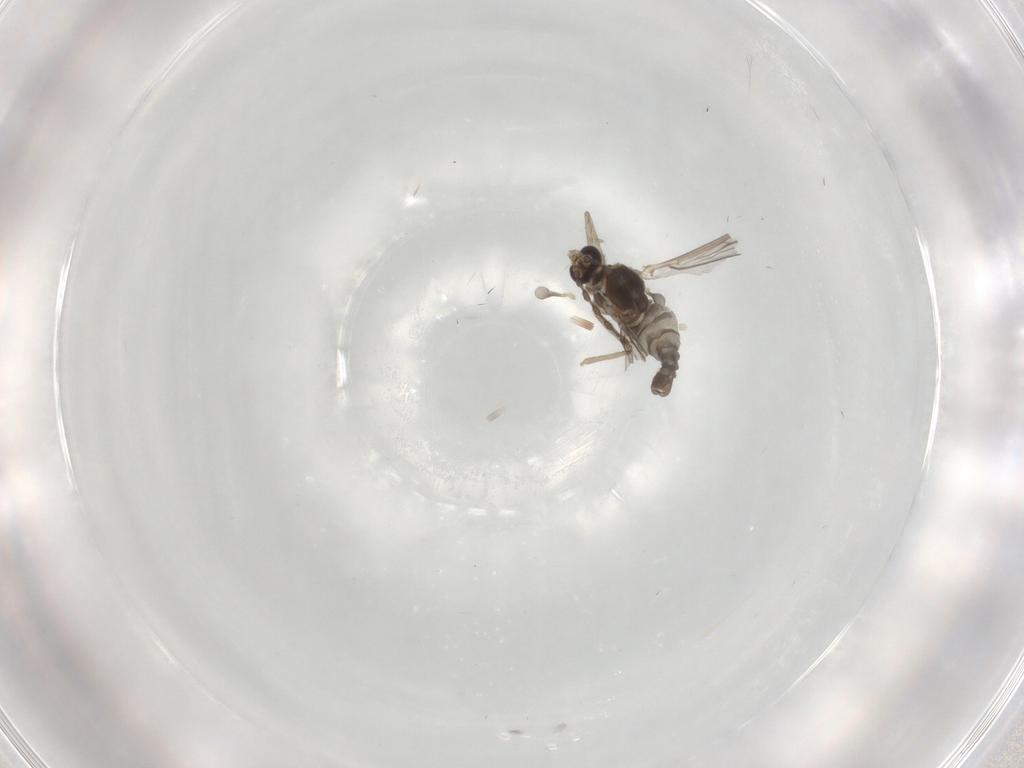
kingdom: Animalia
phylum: Arthropoda
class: Insecta
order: Diptera
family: Cecidomyiidae
